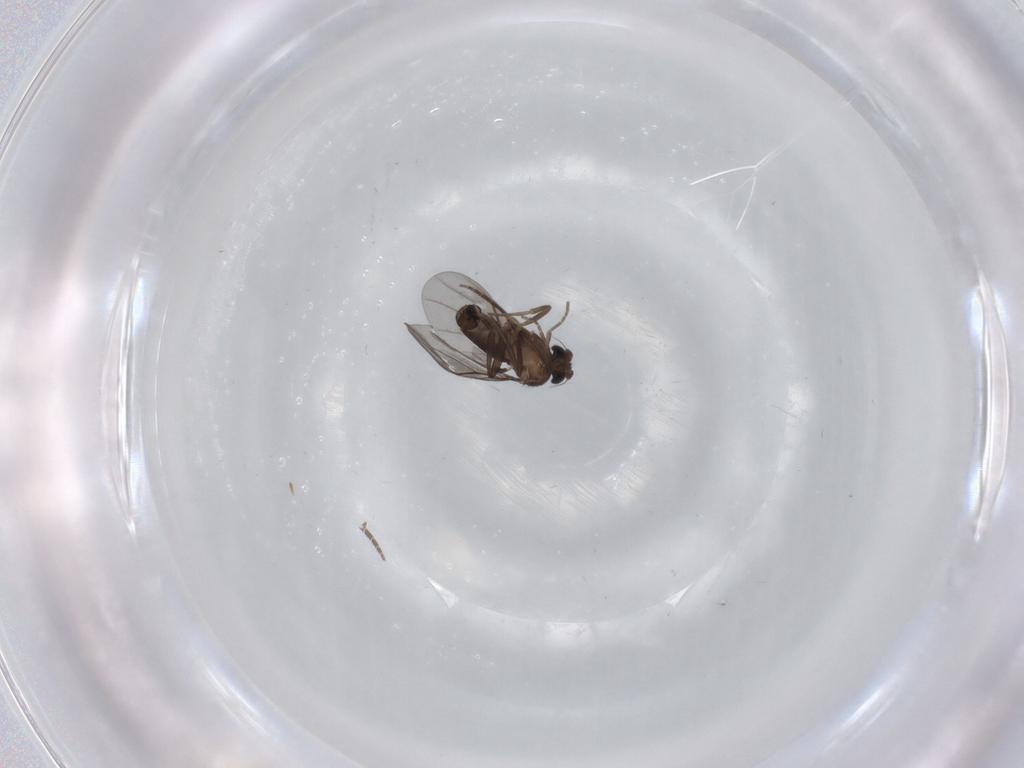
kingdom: Animalia
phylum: Arthropoda
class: Insecta
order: Diptera
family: Psychodidae
